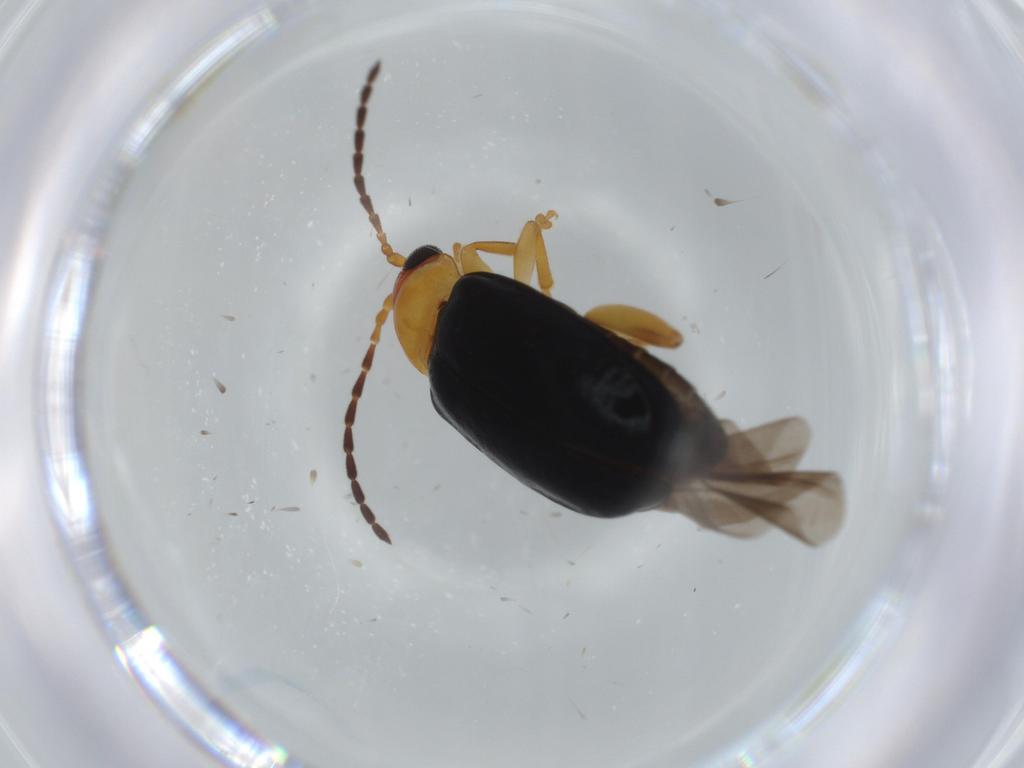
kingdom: Animalia
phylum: Arthropoda
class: Insecta
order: Coleoptera
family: Chrysomelidae
